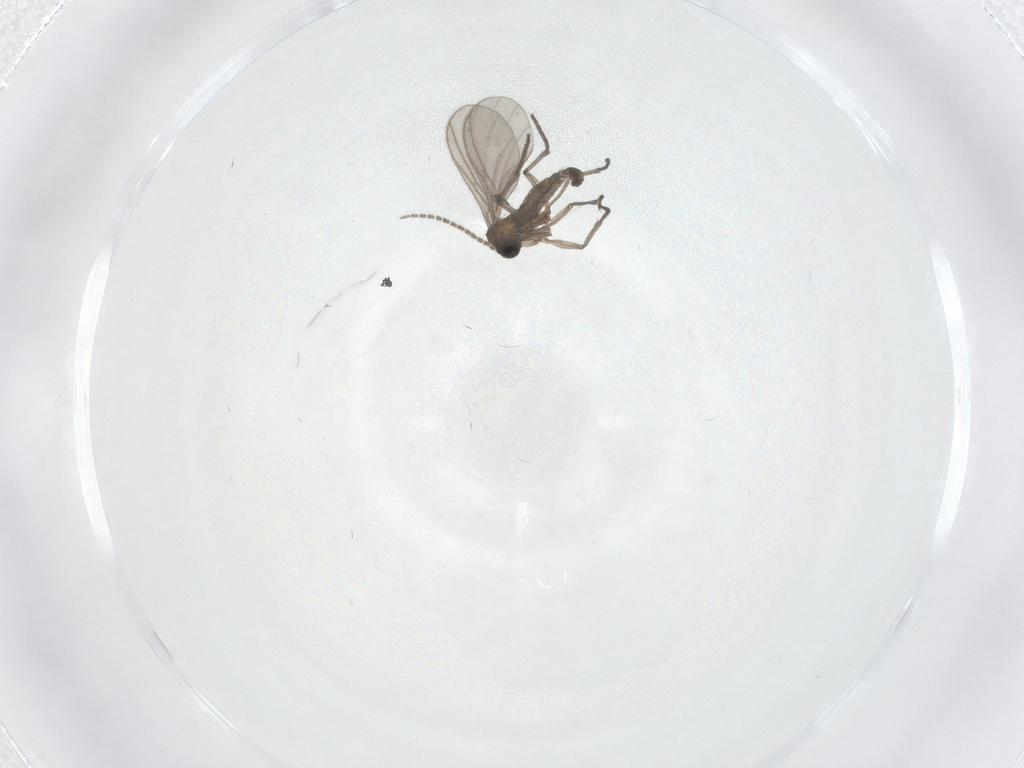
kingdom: Animalia
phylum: Arthropoda
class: Insecta
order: Diptera
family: Sciaridae
